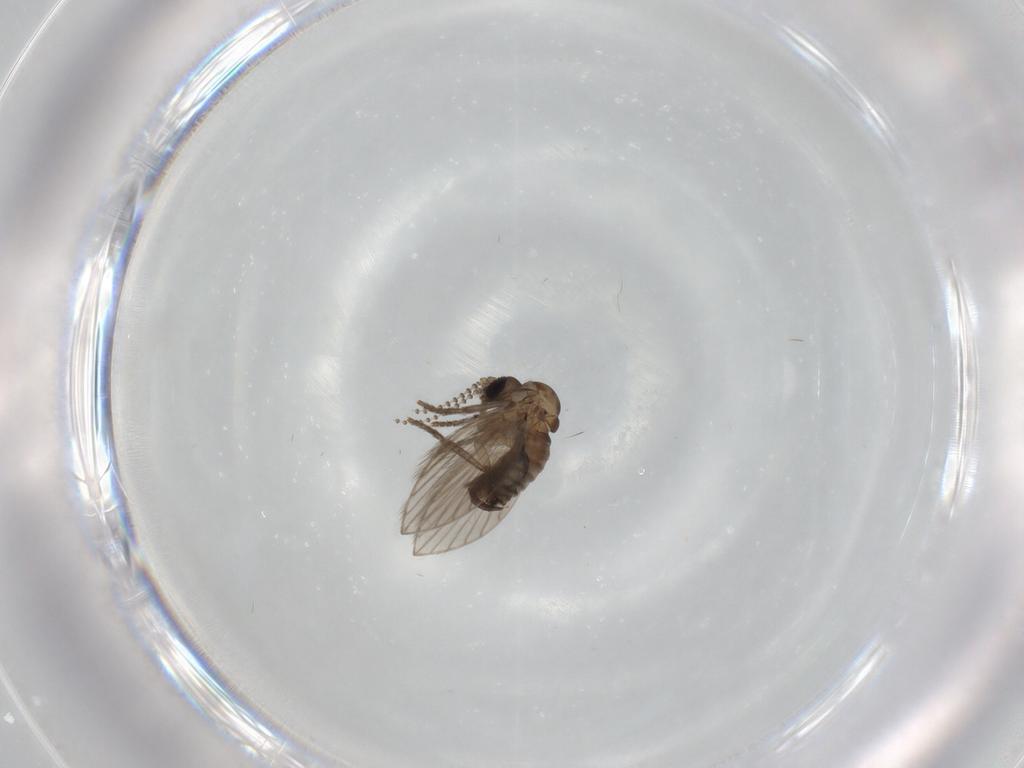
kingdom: Animalia
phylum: Arthropoda
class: Insecta
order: Diptera
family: Psychodidae
